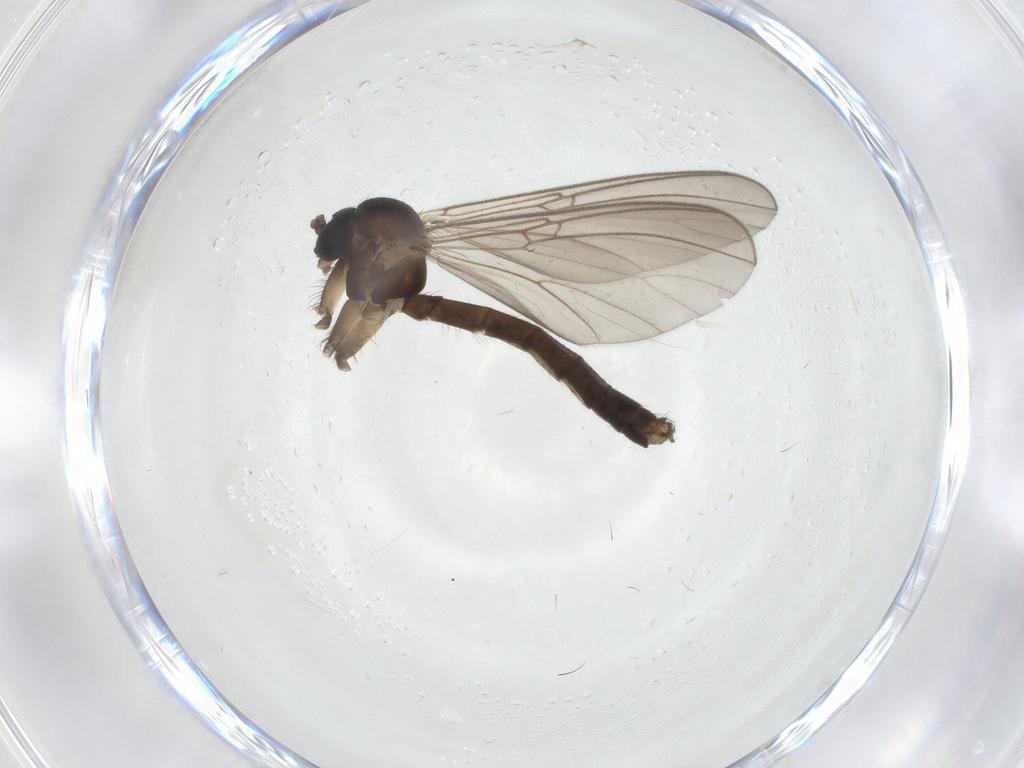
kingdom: Animalia
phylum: Arthropoda
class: Insecta
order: Diptera
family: Mycetophilidae
